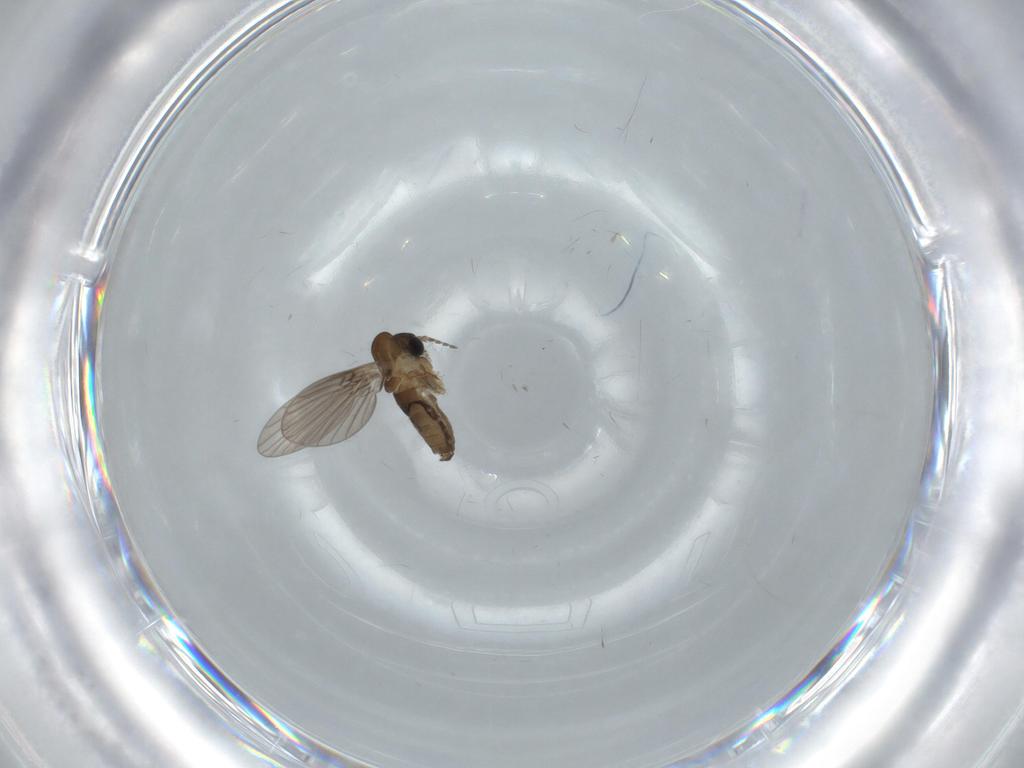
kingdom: Animalia
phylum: Arthropoda
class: Insecta
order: Diptera
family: Psychodidae
